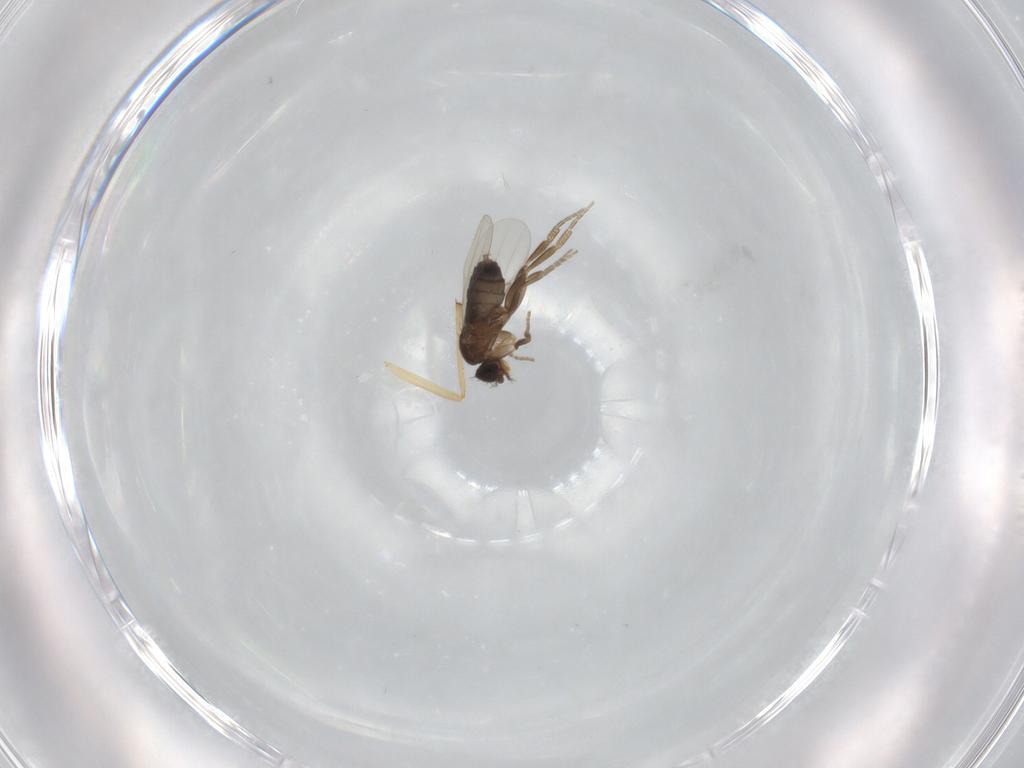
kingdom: Animalia
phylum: Arthropoda
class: Insecta
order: Diptera
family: Phoridae
